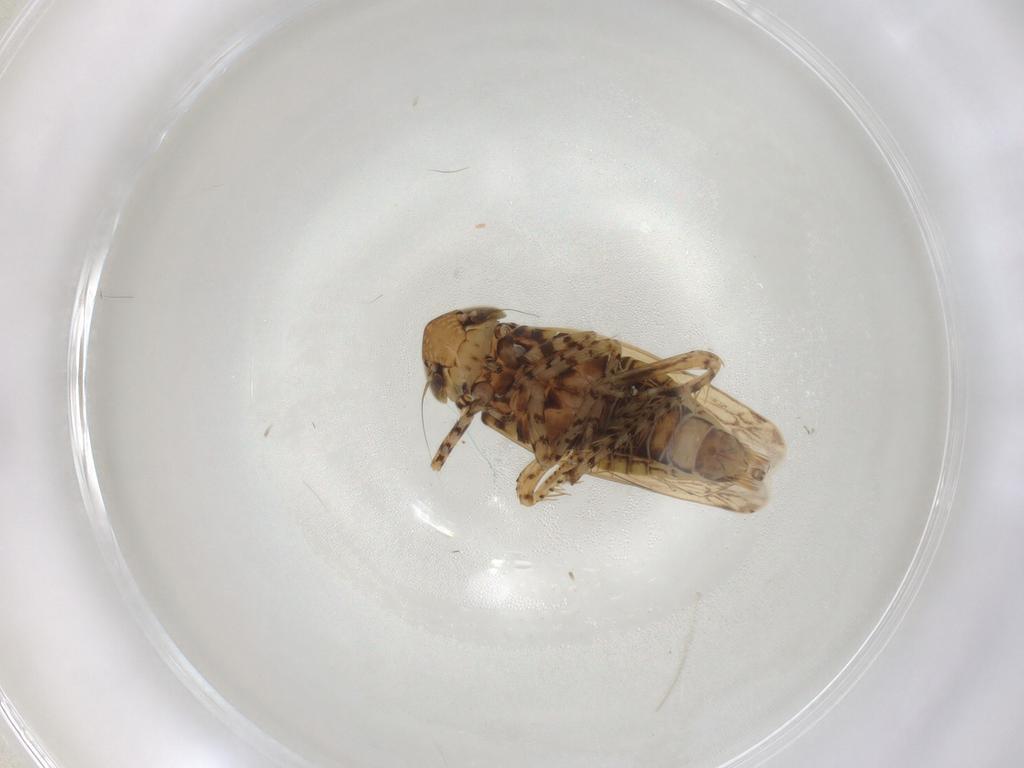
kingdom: Animalia
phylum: Arthropoda
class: Insecta
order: Hemiptera
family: Cicadellidae
